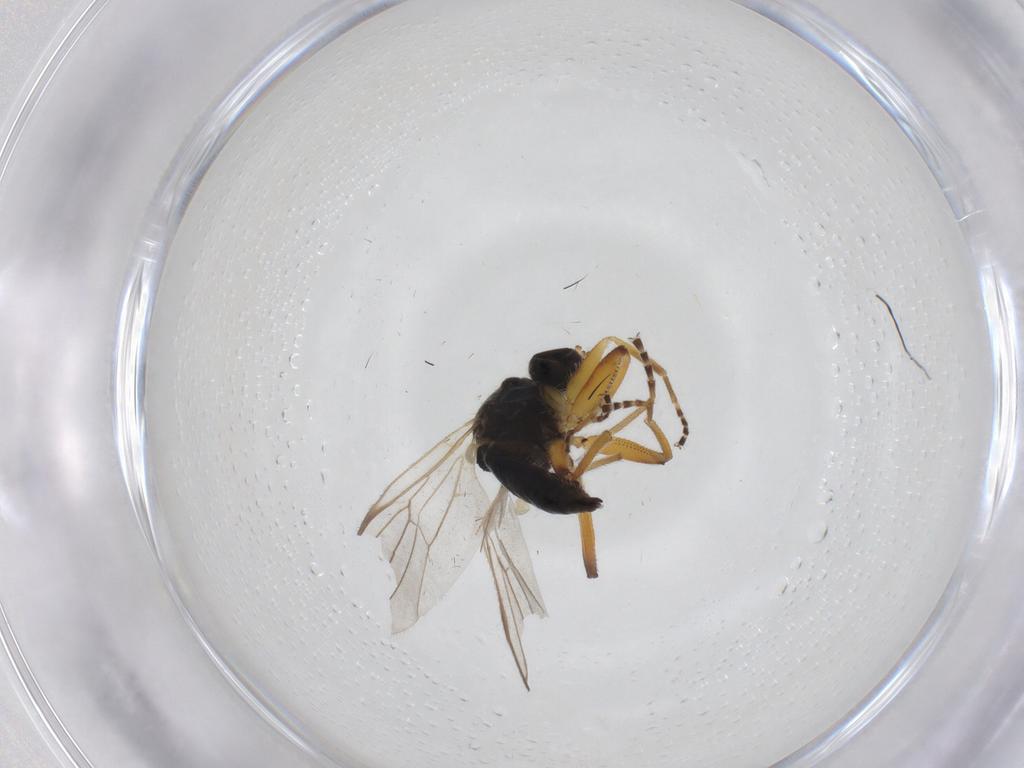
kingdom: Animalia
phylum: Arthropoda
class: Insecta
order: Diptera
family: Hybotidae
